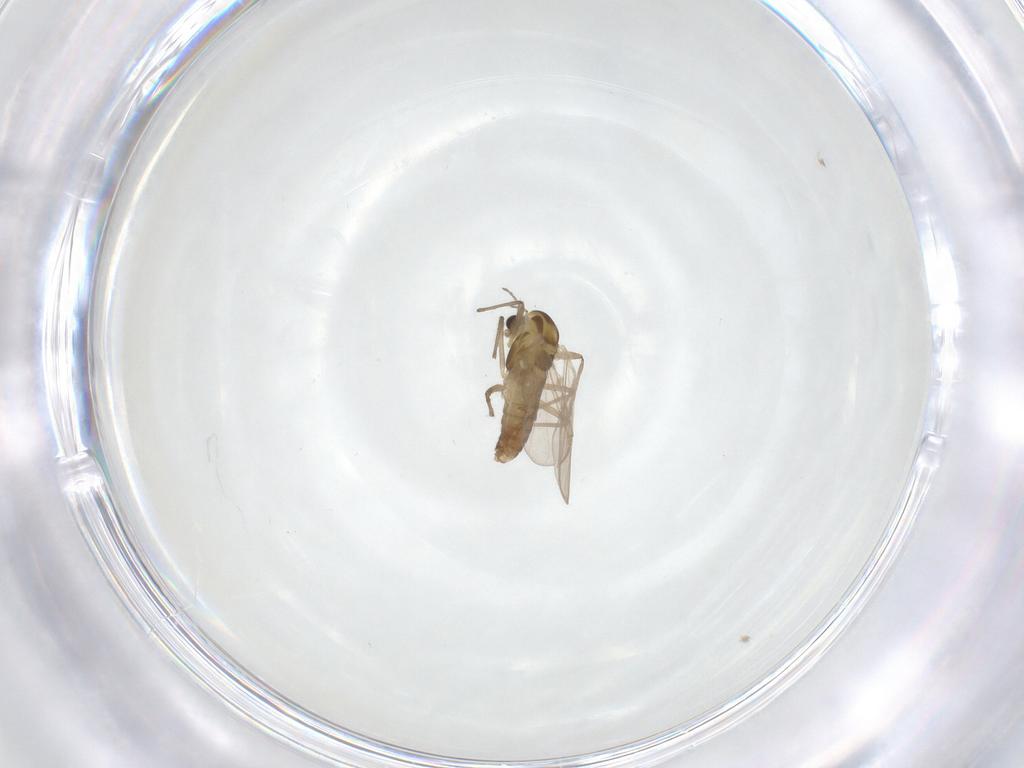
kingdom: Animalia
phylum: Arthropoda
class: Insecta
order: Diptera
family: Chironomidae
